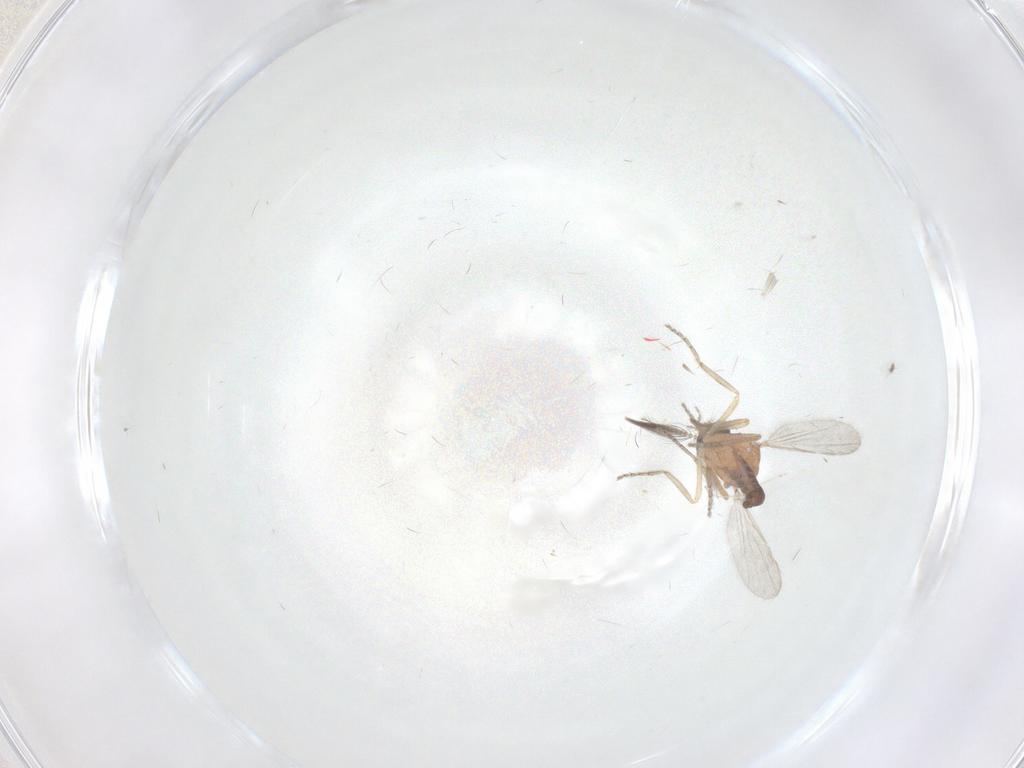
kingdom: Animalia
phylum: Arthropoda
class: Insecta
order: Diptera
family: Ceratopogonidae
